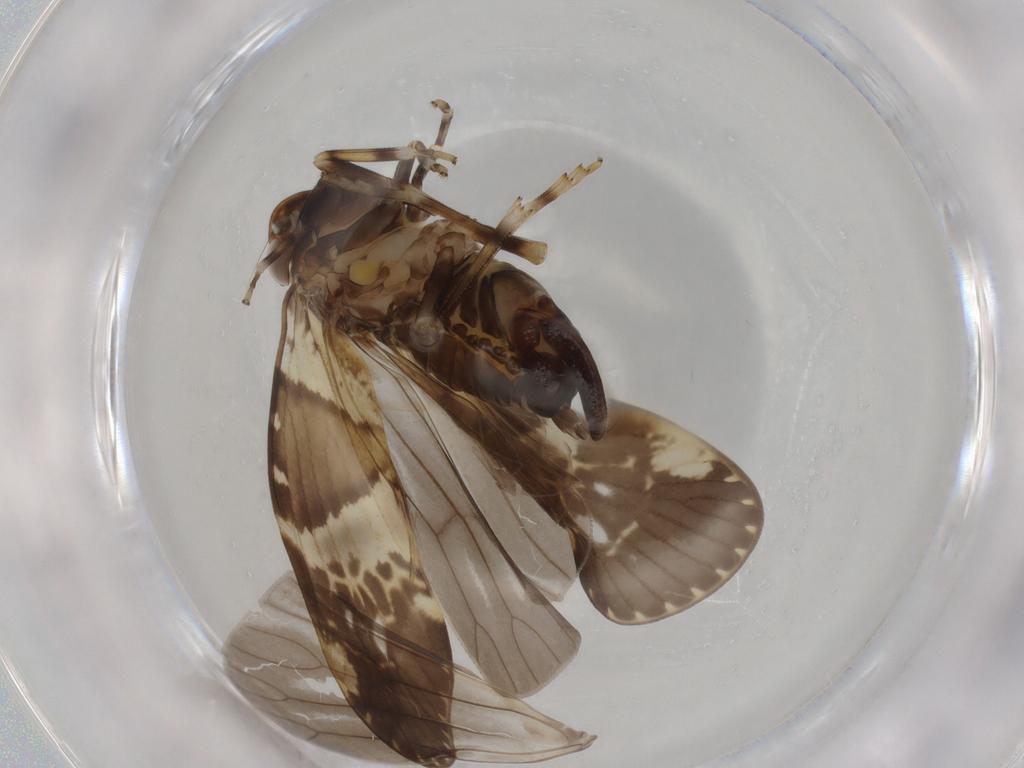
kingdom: Animalia
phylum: Arthropoda
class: Insecta
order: Hemiptera
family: Cixiidae
